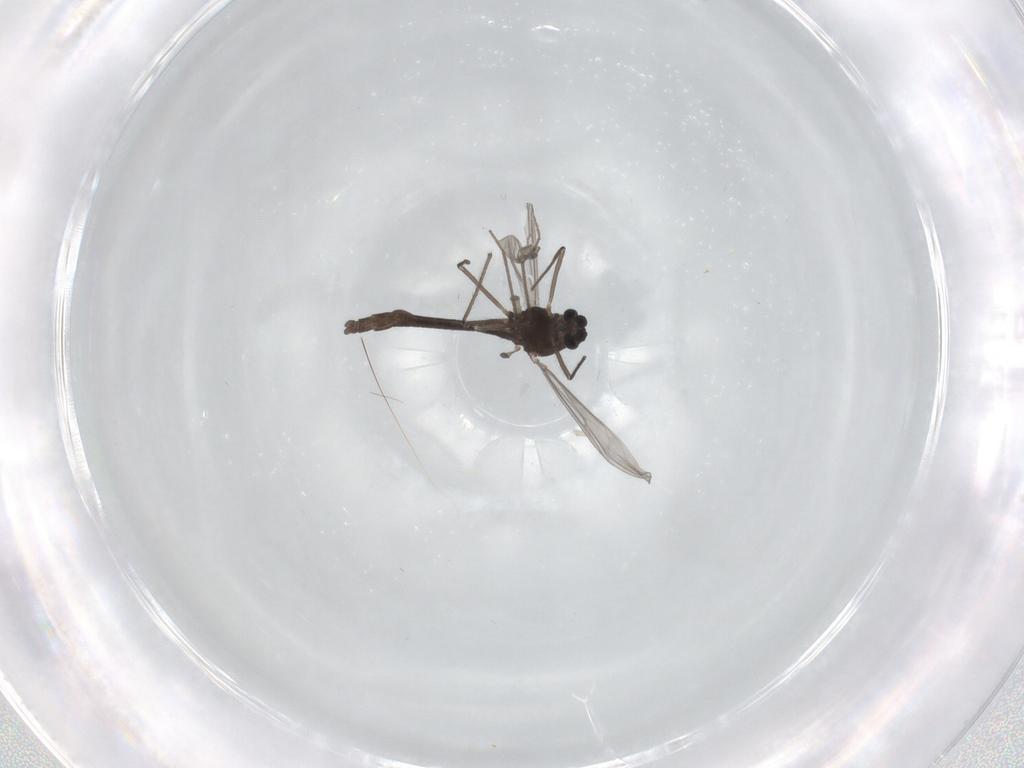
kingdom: Animalia
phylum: Arthropoda
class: Insecta
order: Diptera
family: Chironomidae
